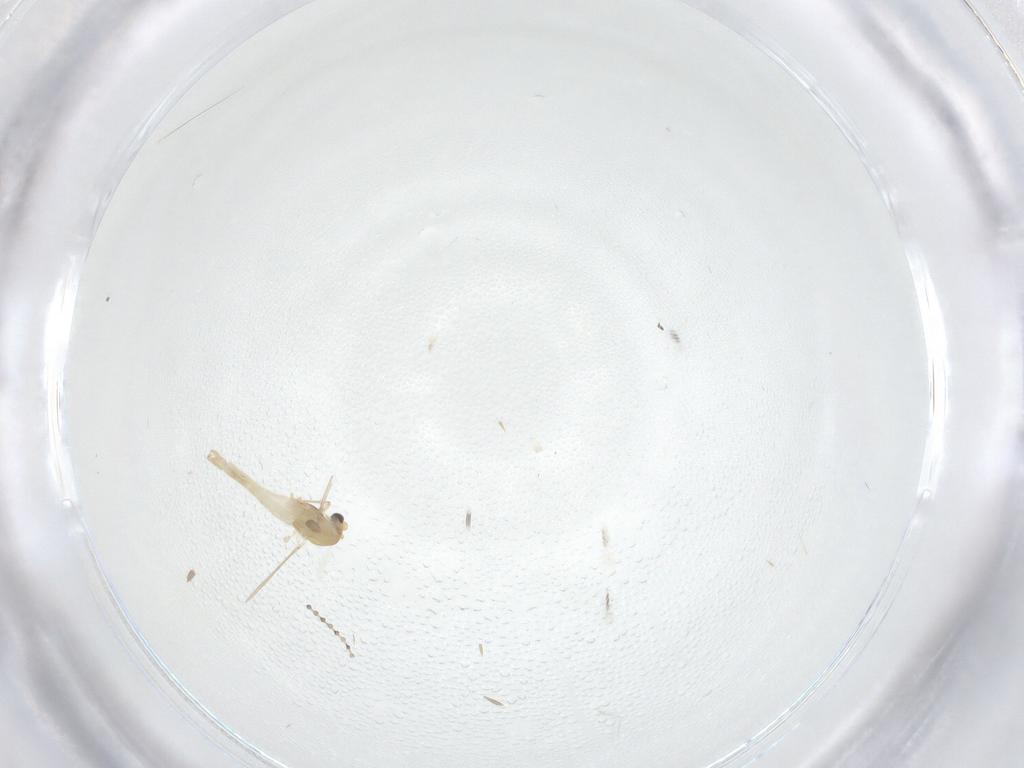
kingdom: Animalia
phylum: Arthropoda
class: Insecta
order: Diptera
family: Cecidomyiidae
